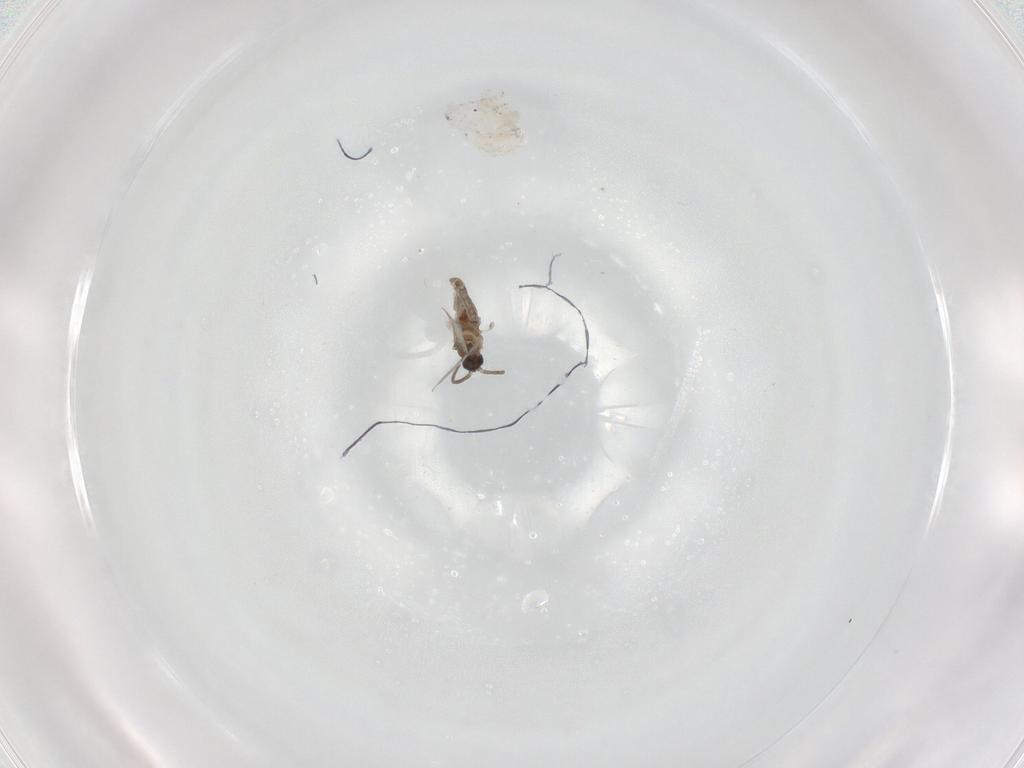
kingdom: Animalia
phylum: Arthropoda
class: Insecta
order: Diptera
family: Cecidomyiidae
